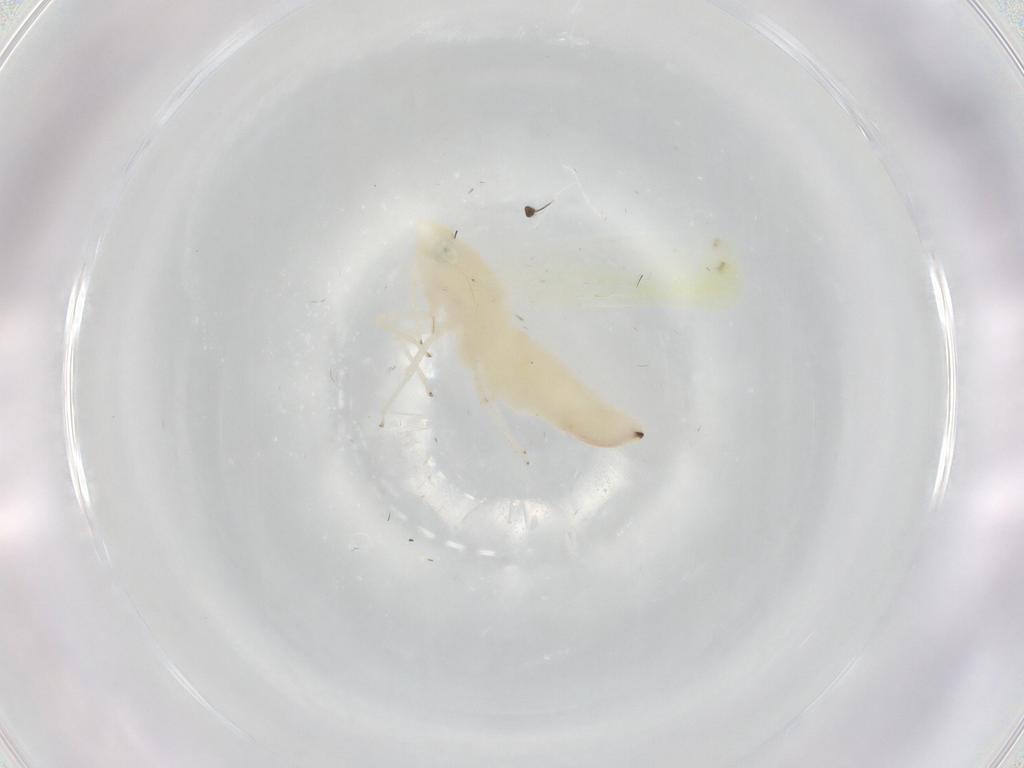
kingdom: Animalia
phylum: Arthropoda
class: Insecta
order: Hemiptera
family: Cicadellidae
